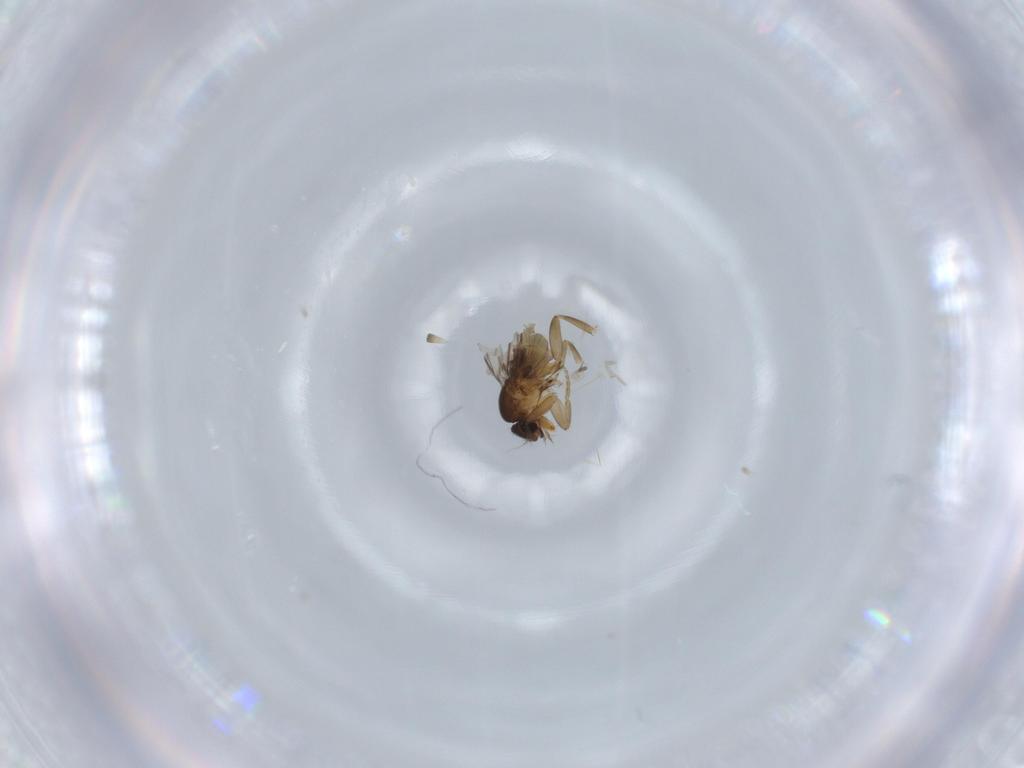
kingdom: Animalia
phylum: Arthropoda
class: Insecta
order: Diptera
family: Phoridae
